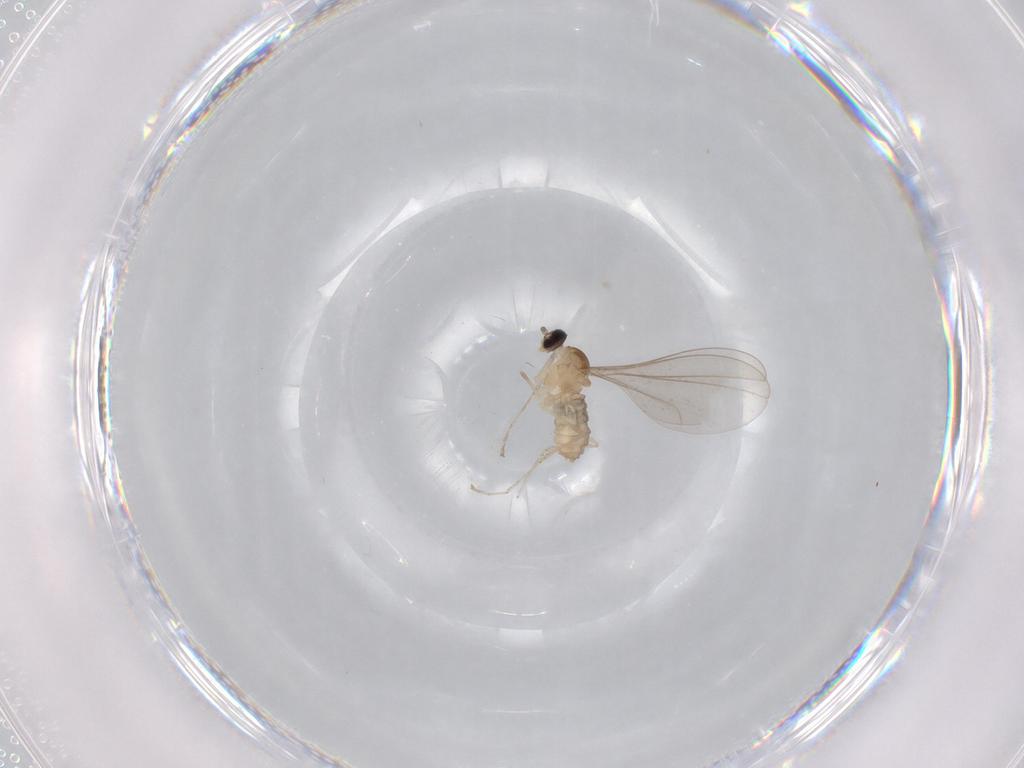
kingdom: Animalia
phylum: Arthropoda
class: Insecta
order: Diptera
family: Cecidomyiidae
